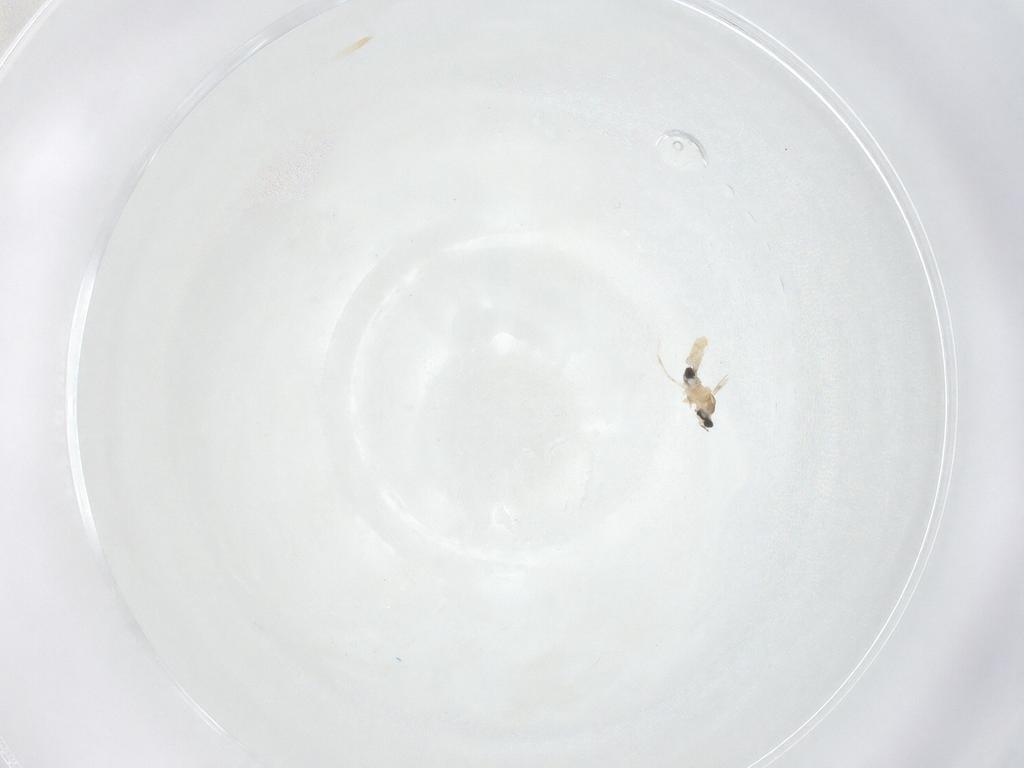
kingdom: Animalia
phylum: Arthropoda
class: Insecta
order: Diptera
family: Cecidomyiidae
